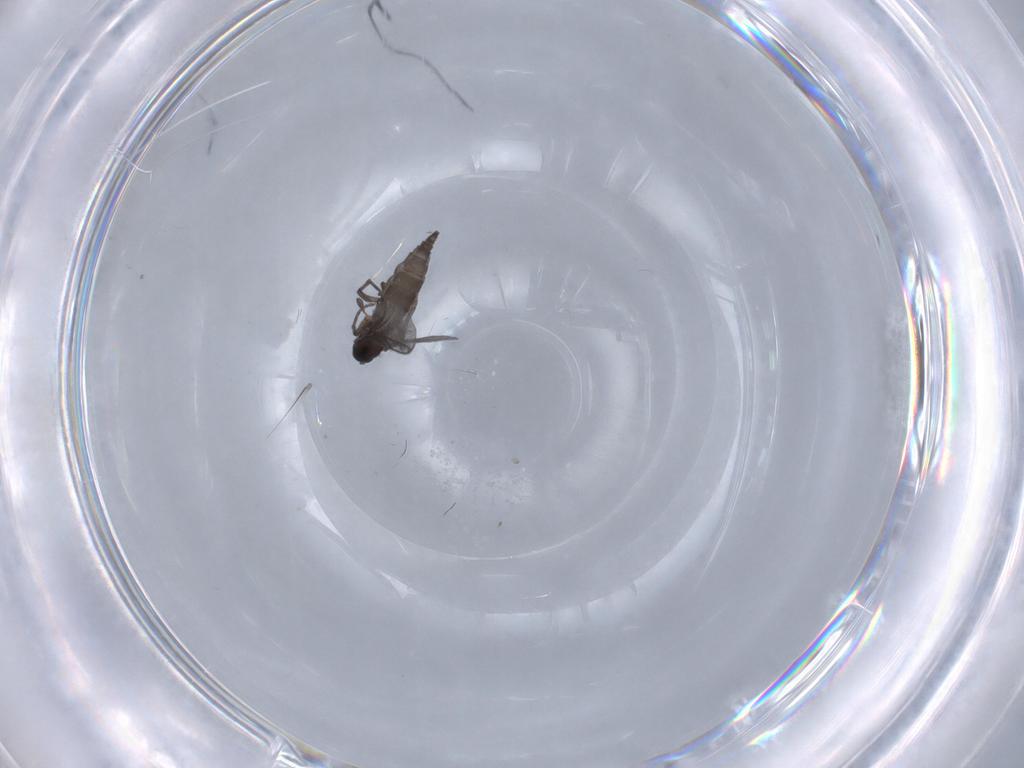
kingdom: Animalia
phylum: Arthropoda
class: Insecta
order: Diptera
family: Dolichopodidae
